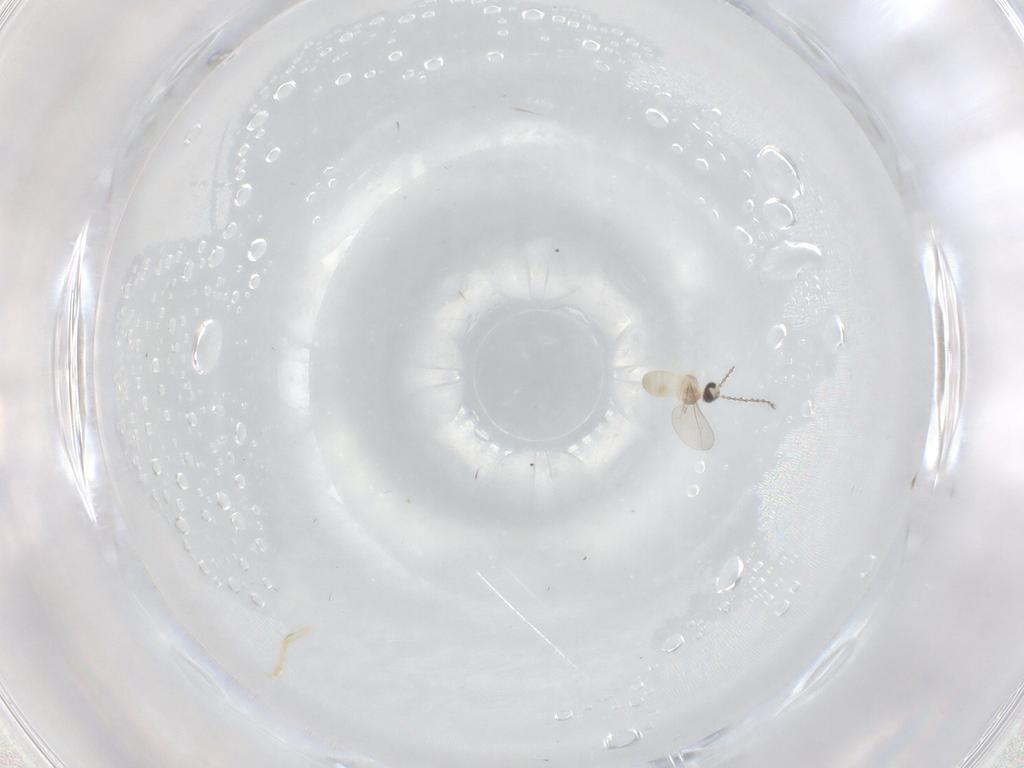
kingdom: Animalia
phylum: Arthropoda
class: Insecta
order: Diptera
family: Cecidomyiidae
